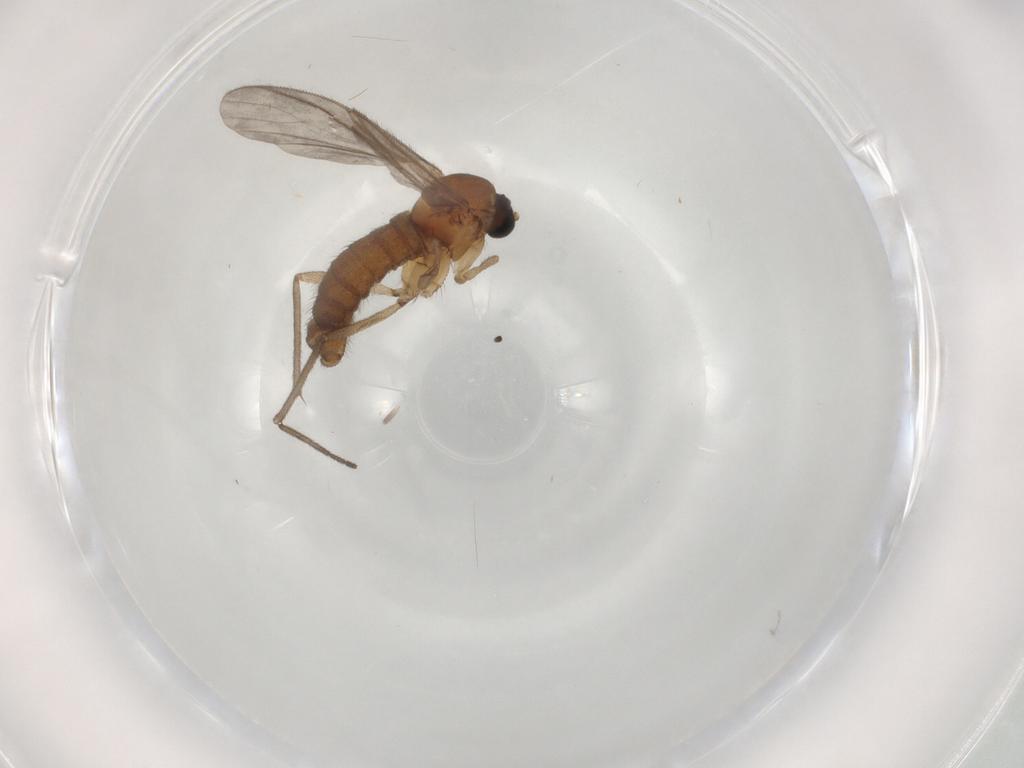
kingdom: Animalia
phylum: Arthropoda
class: Insecta
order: Diptera
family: Sciaridae
